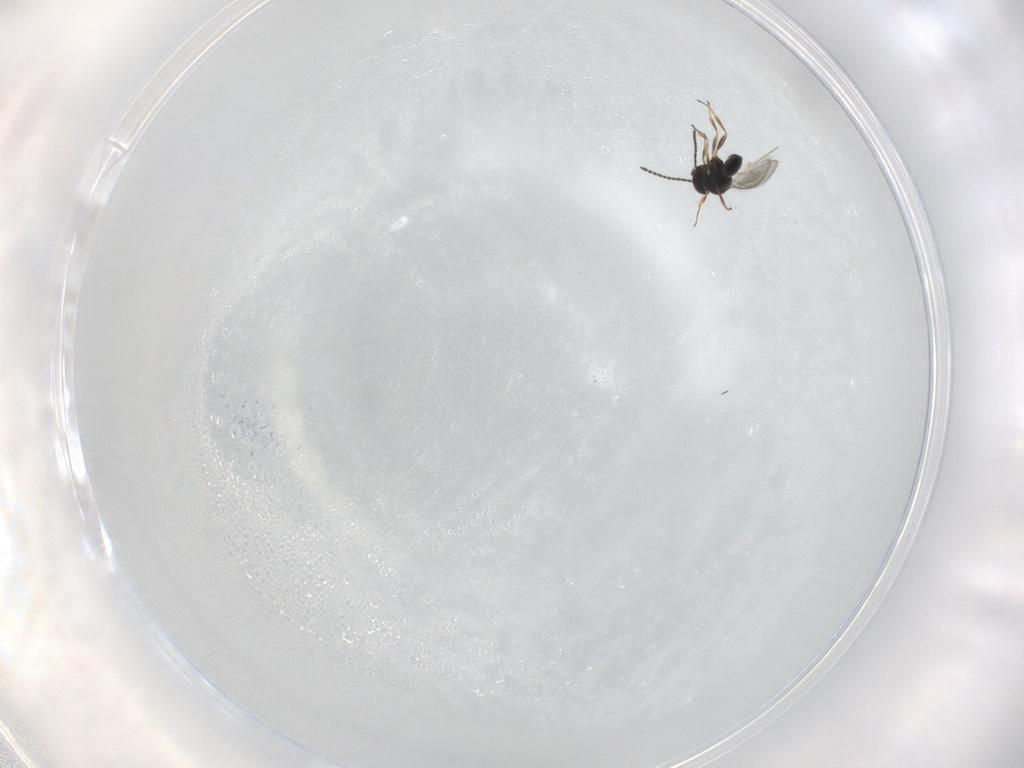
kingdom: Animalia
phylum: Arthropoda
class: Insecta
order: Hymenoptera
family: Scelionidae
